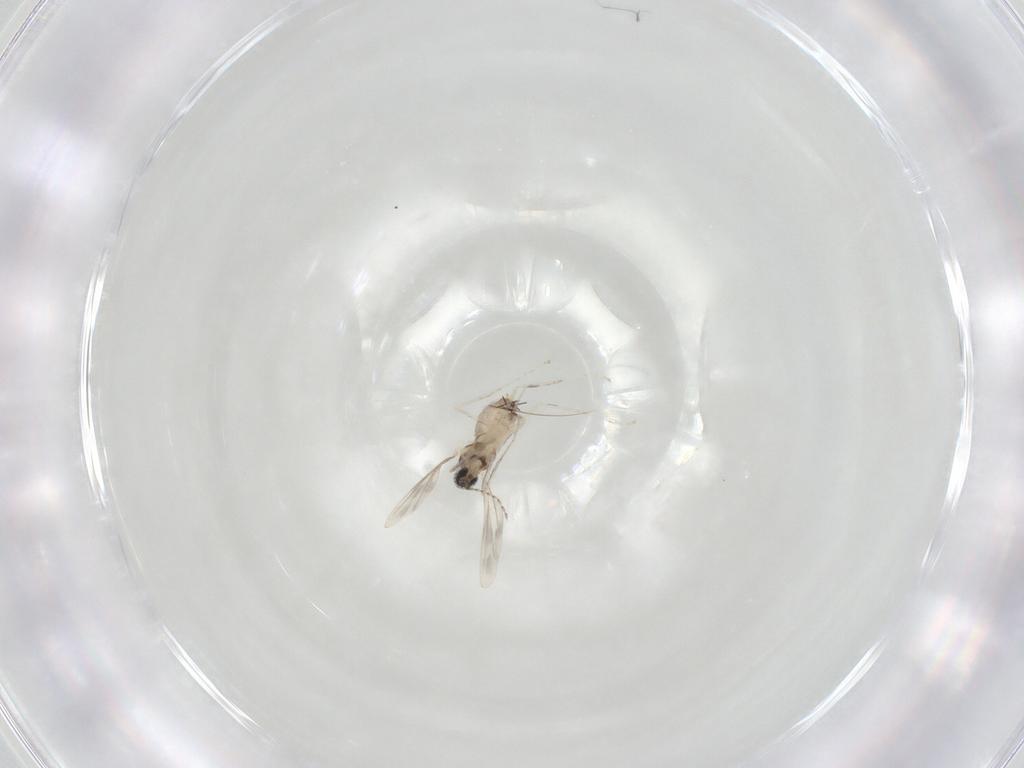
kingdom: Animalia
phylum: Arthropoda
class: Insecta
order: Diptera
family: Cecidomyiidae
